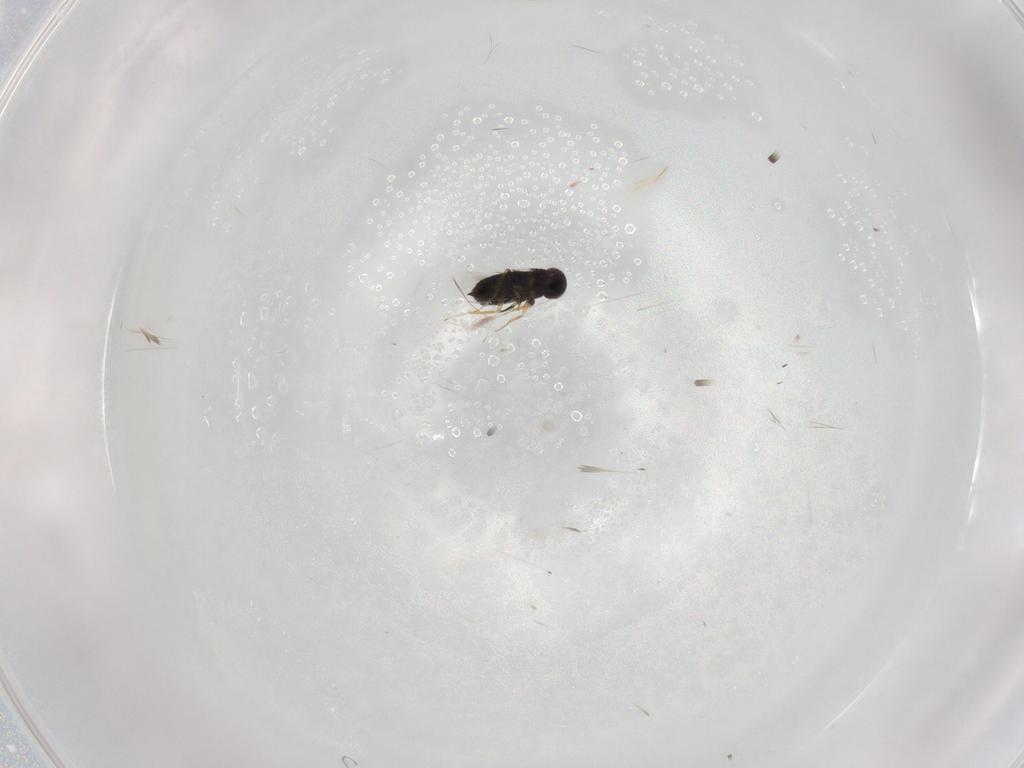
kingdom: Animalia
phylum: Arthropoda
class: Insecta
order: Hymenoptera
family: Signiphoridae
